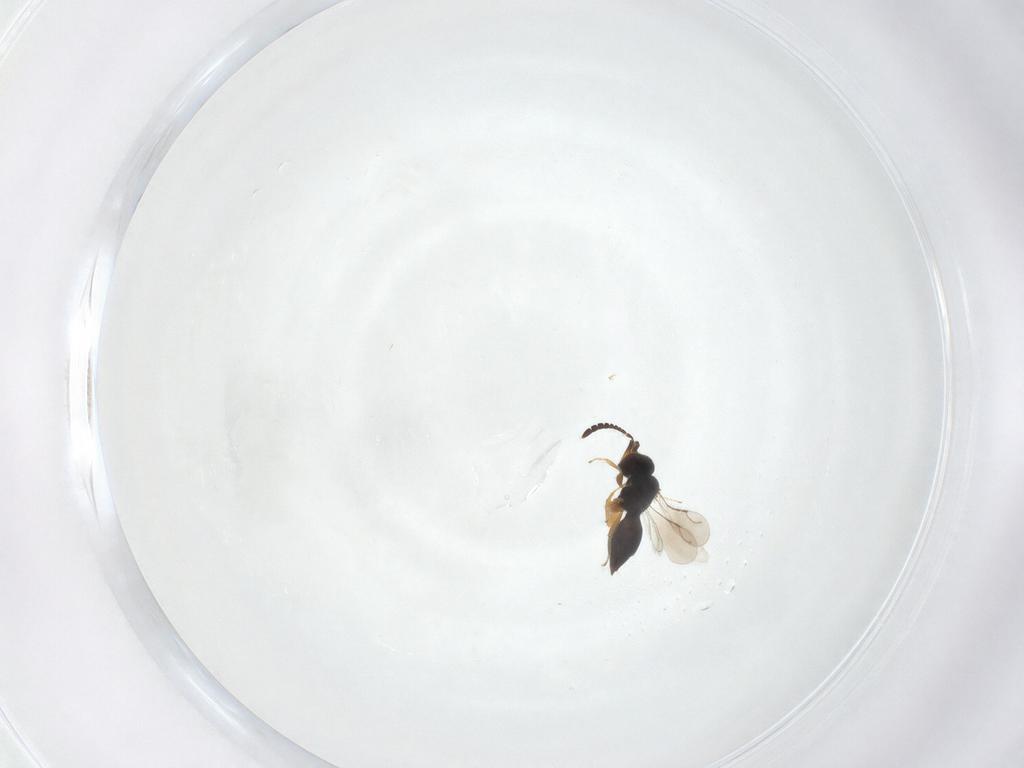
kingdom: Animalia
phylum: Arthropoda
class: Insecta
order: Hymenoptera
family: Ceraphronidae
